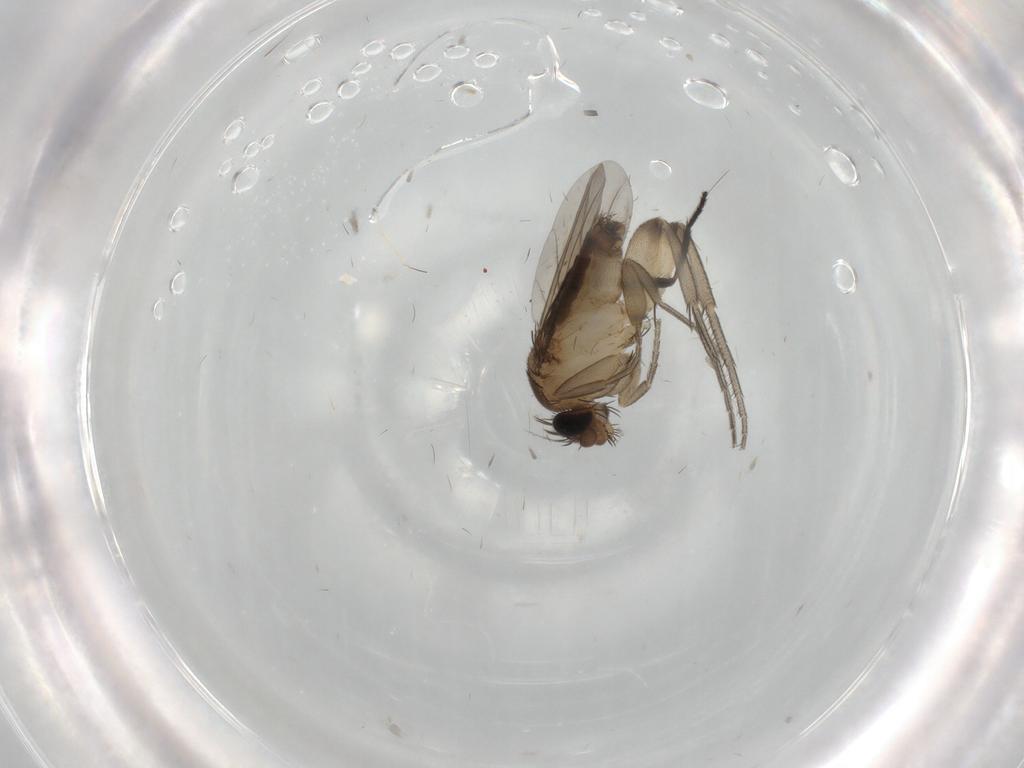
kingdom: Animalia
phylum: Arthropoda
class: Insecta
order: Diptera
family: Phoridae
